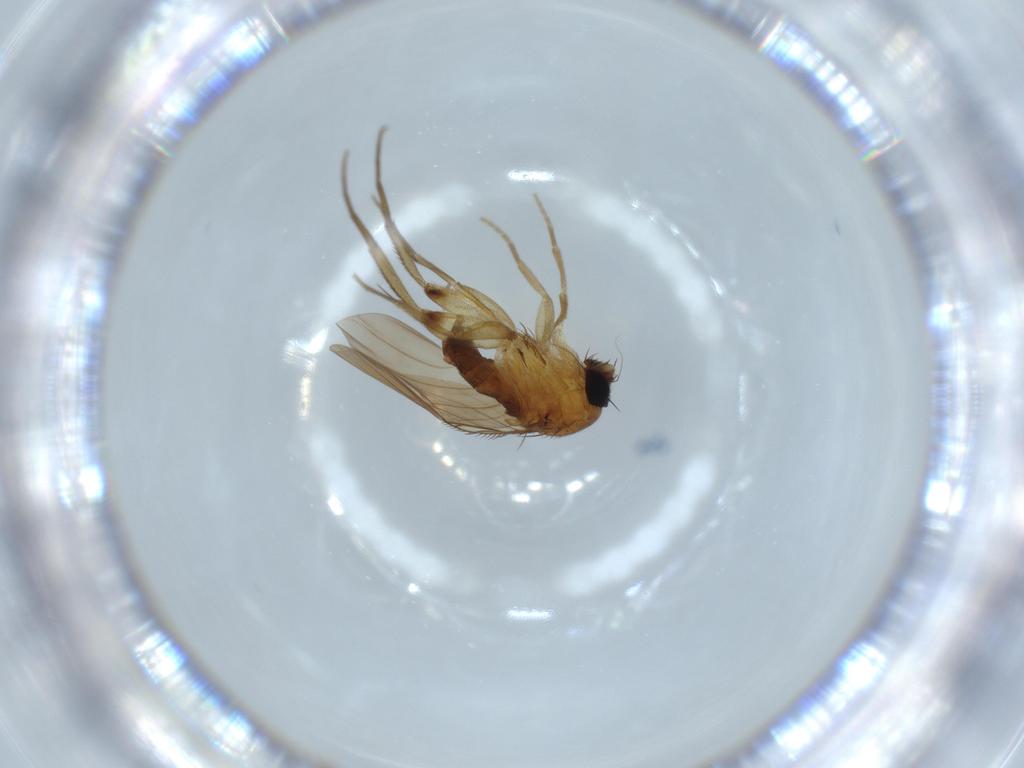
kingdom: Animalia
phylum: Arthropoda
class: Insecta
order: Diptera
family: Phoridae
